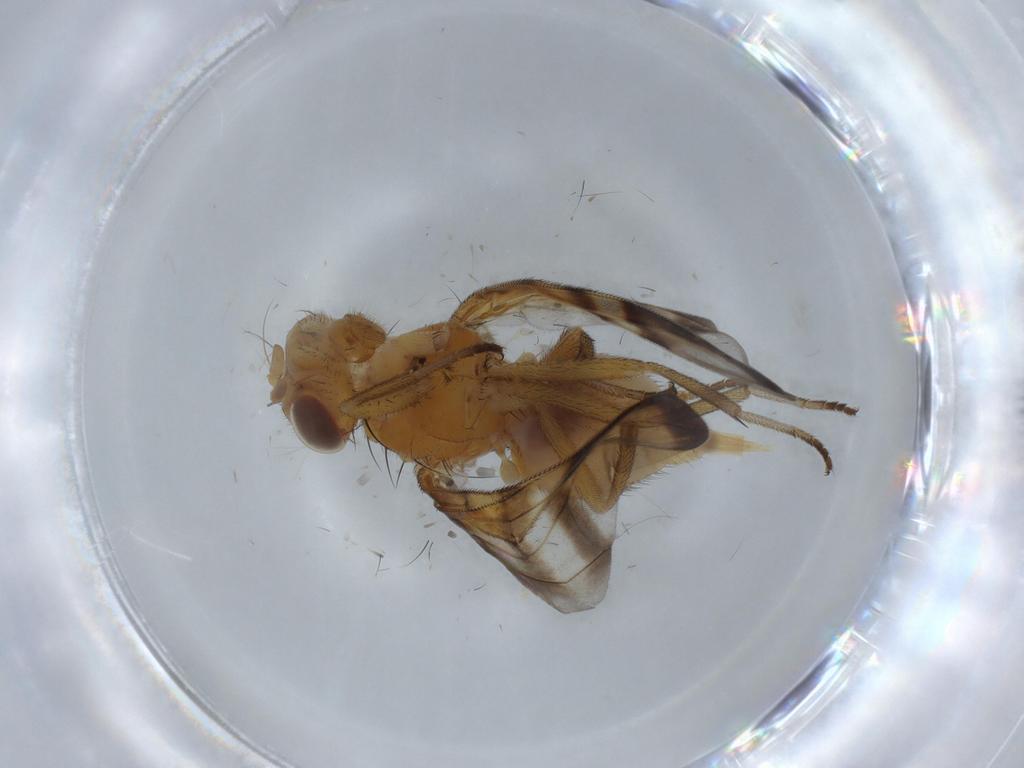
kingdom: Animalia
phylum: Arthropoda
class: Insecta
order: Diptera
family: Scatopsidae
